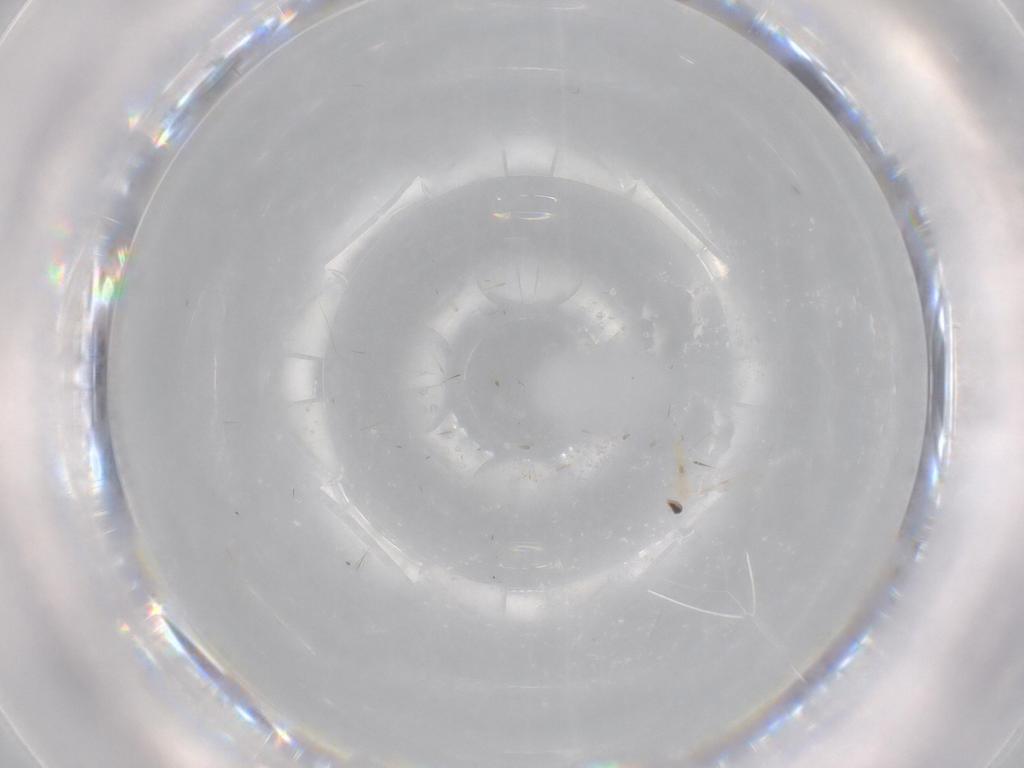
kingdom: Animalia
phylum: Arthropoda
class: Insecta
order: Diptera
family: Cecidomyiidae
